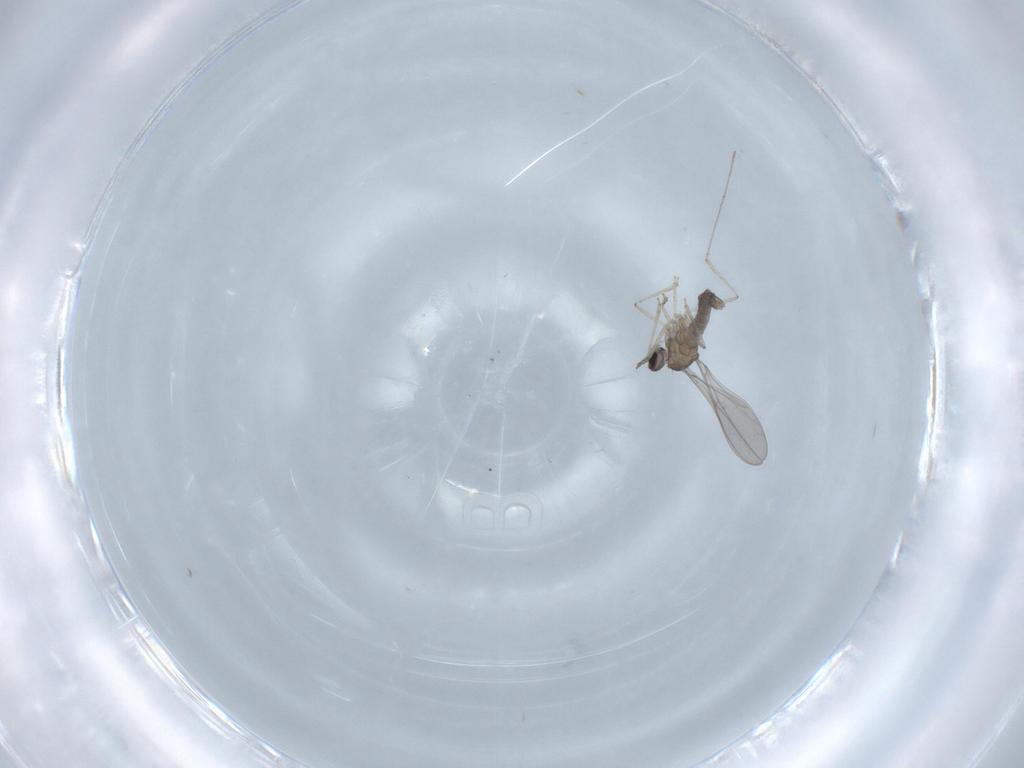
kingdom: Animalia
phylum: Arthropoda
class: Insecta
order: Diptera
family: Cecidomyiidae
